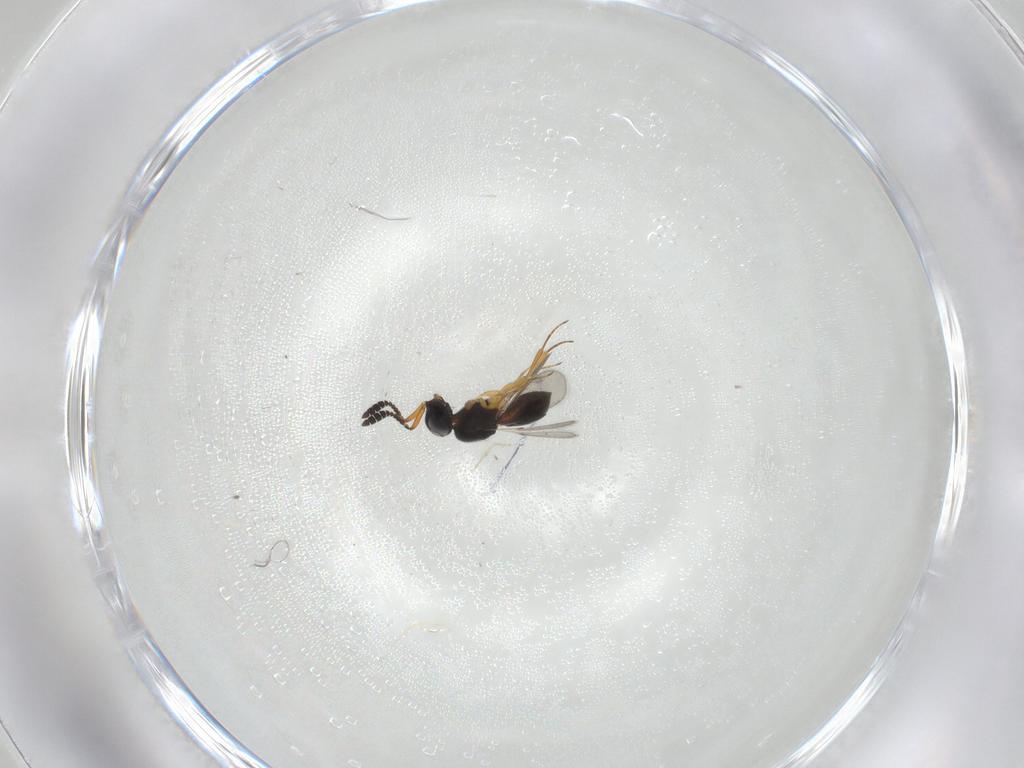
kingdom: Animalia
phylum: Arthropoda
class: Insecta
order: Hymenoptera
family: Scelionidae
